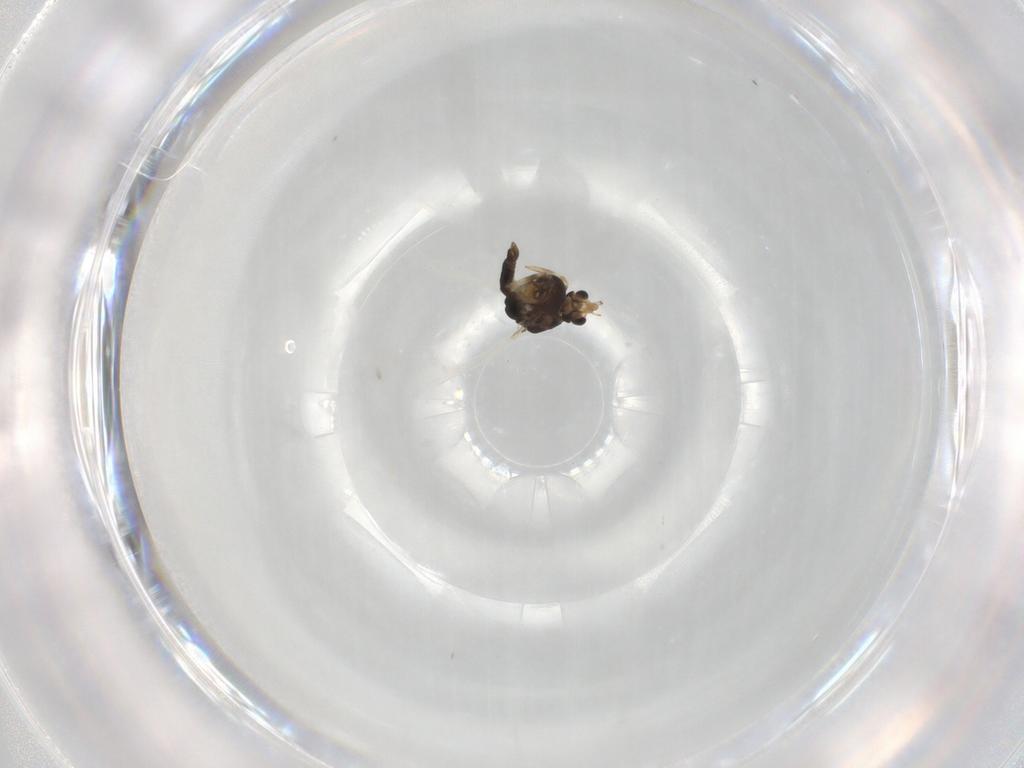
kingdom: Animalia
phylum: Arthropoda
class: Insecta
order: Diptera
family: Chironomidae
